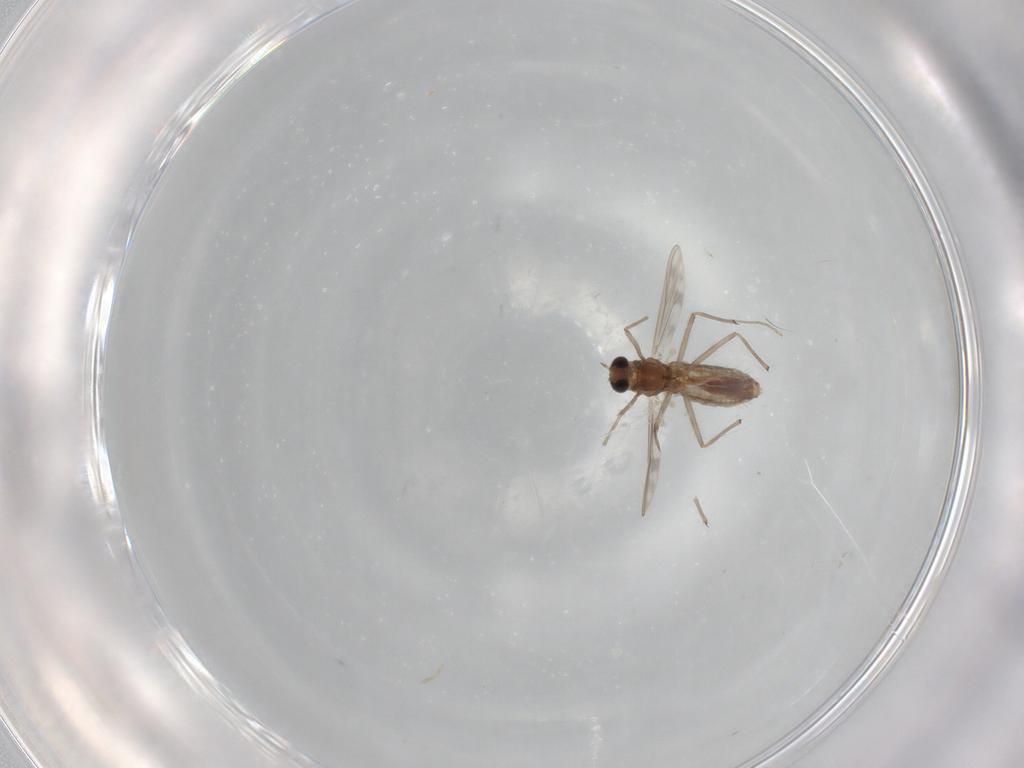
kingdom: Animalia
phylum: Arthropoda
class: Insecta
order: Diptera
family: Chironomidae
